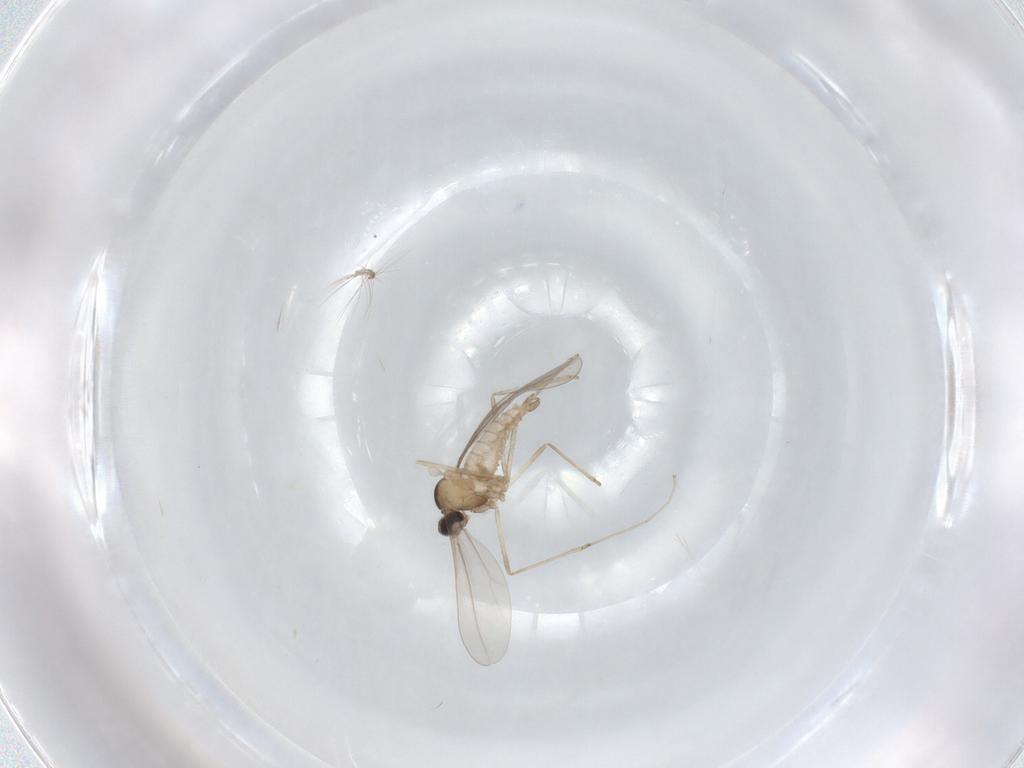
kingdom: Animalia
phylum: Arthropoda
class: Insecta
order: Diptera
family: Cecidomyiidae
